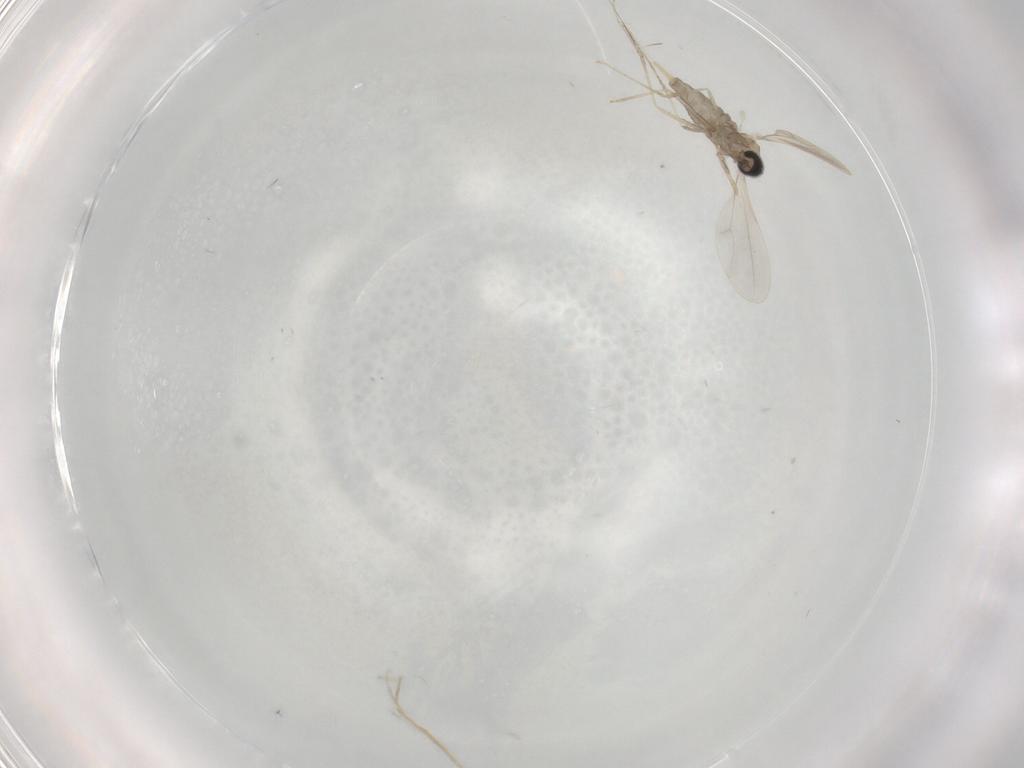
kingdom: Animalia
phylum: Arthropoda
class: Insecta
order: Diptera
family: Cecidomyiidae
